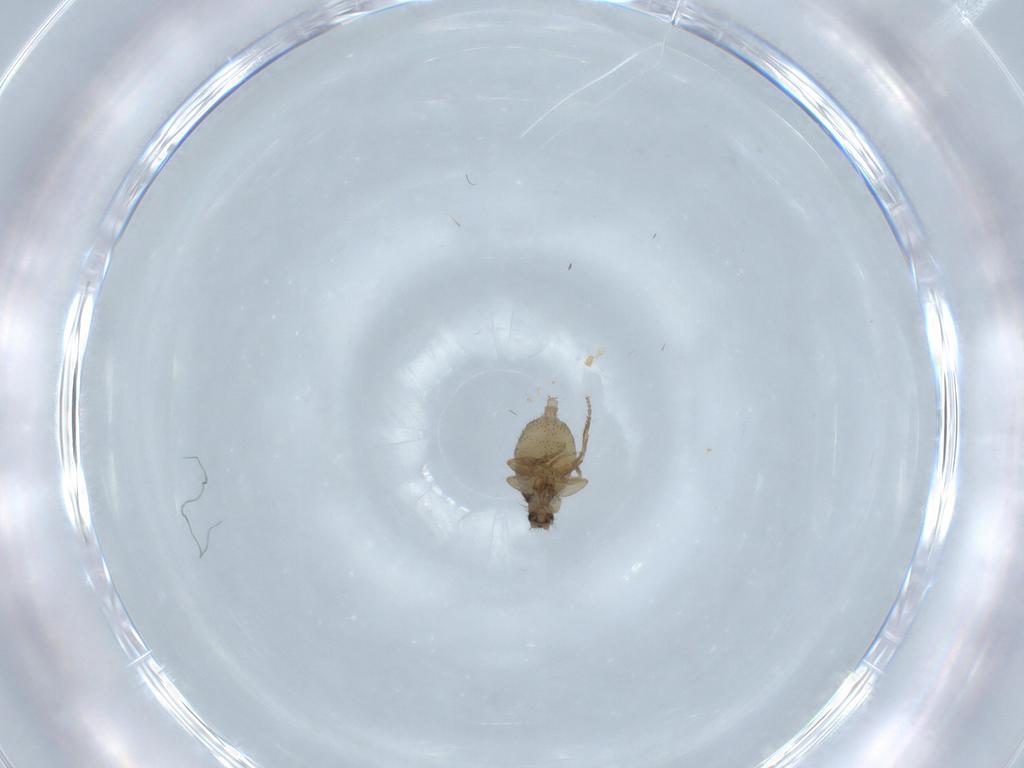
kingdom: Animalia
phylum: Arthropoda
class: Insecta
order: Diptera
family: Phoridae
